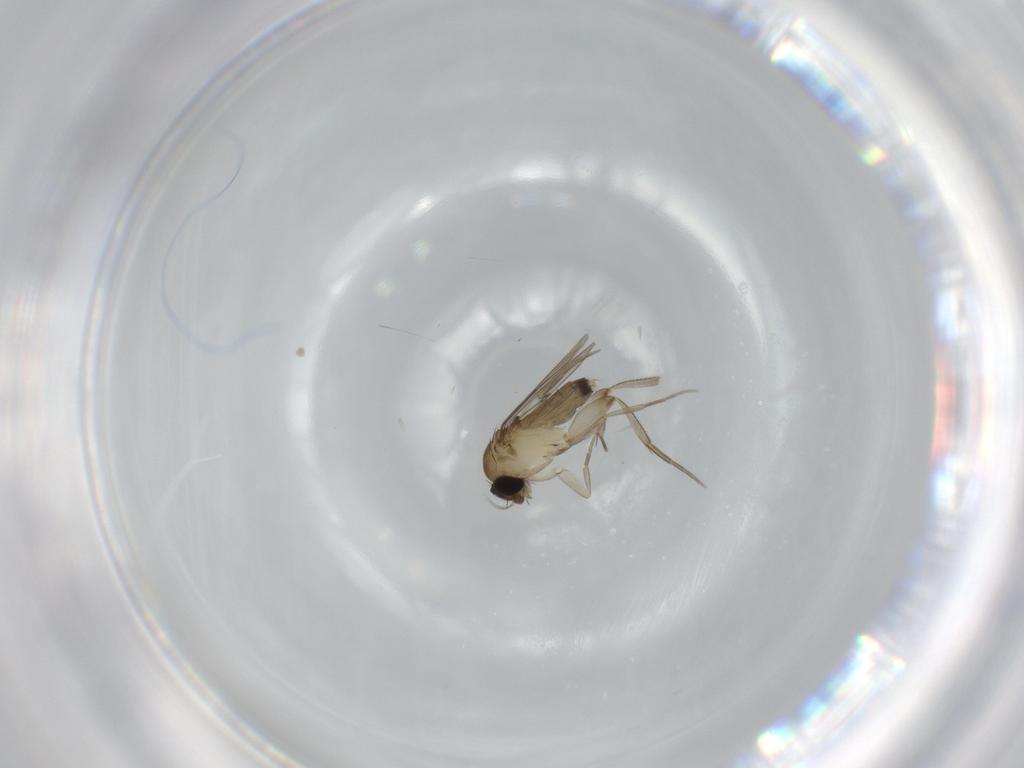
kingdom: Animalia
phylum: Arthropoda
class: Insecta
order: Diptera
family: Phoridae
